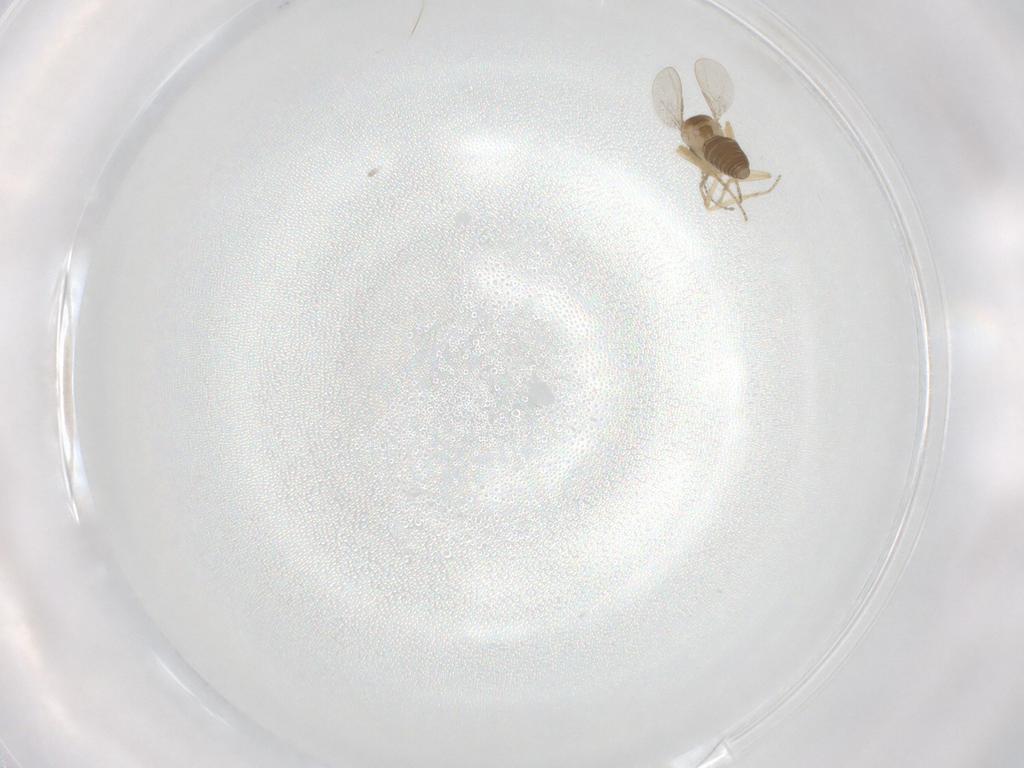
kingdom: Animalia
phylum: Arthropoda
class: Insecta
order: Diptera
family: Ceratopogonidae
